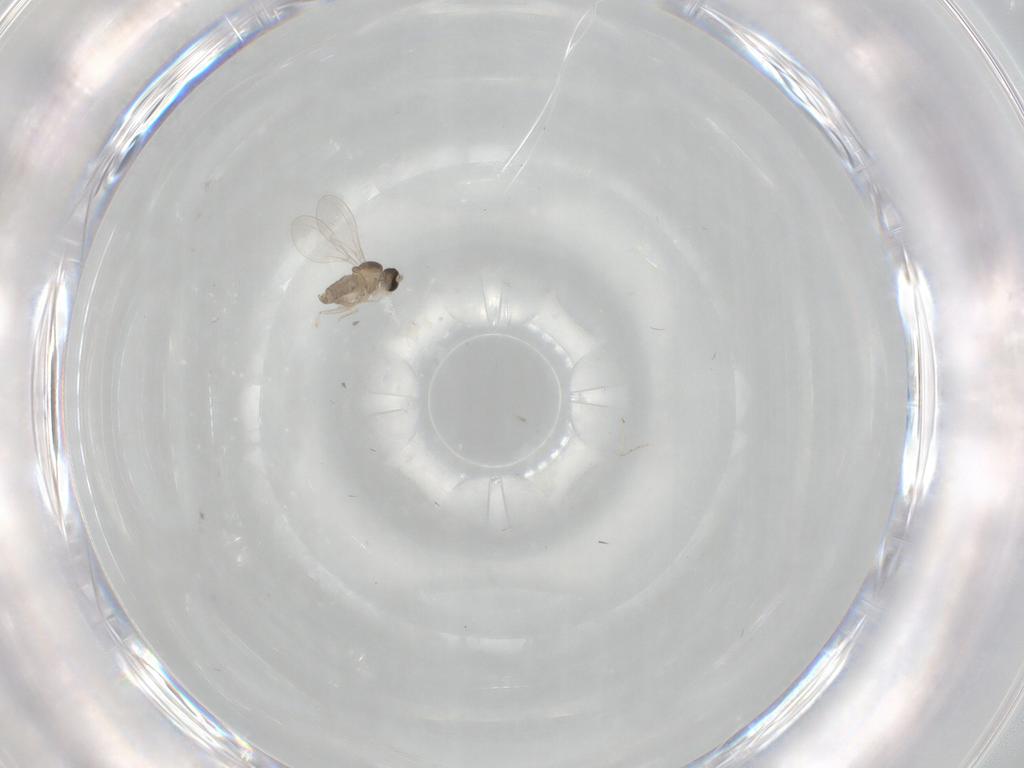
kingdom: Animalia
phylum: Arthropoda
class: Insecta
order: Diptera
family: Cecidomyiidae
